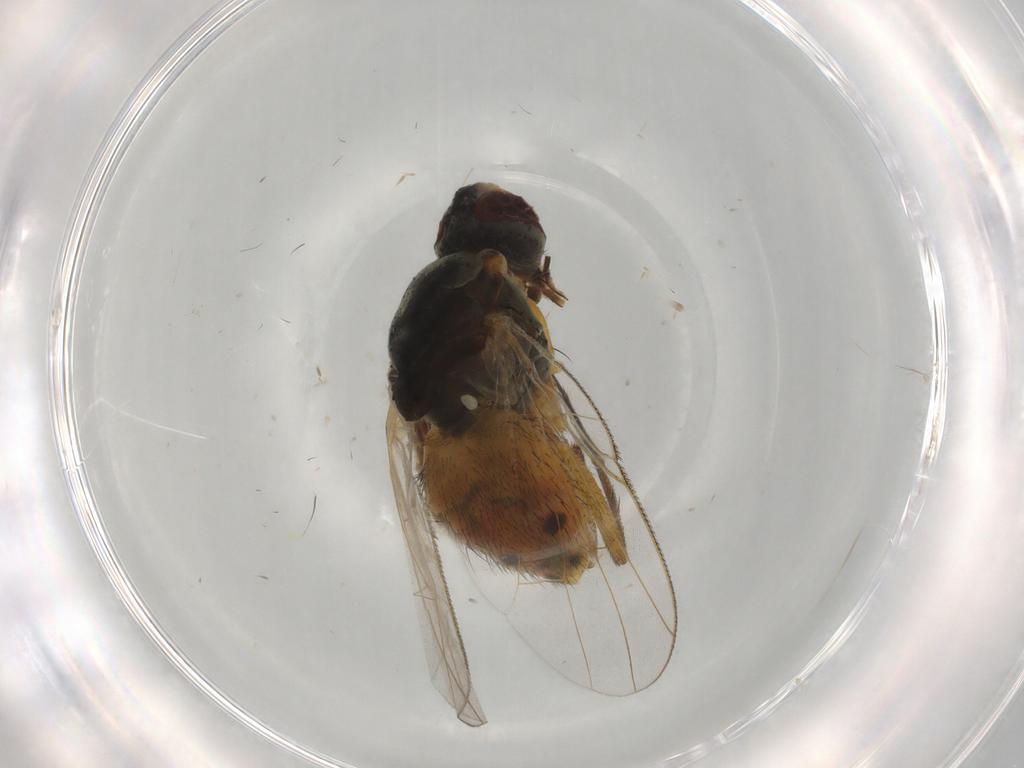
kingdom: Animalia
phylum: Arthropoda
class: Insecta
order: Diptera
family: Muscidae
